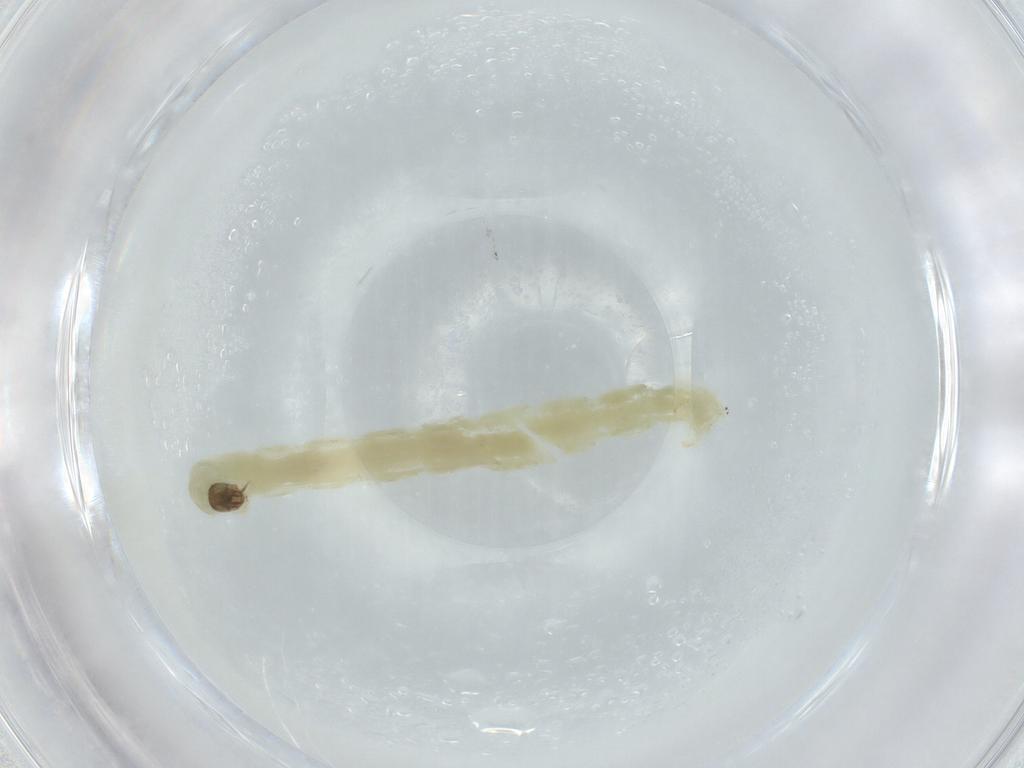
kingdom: Animalia
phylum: Arthropoda
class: Insecta
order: Diptera
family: Chironomidae
